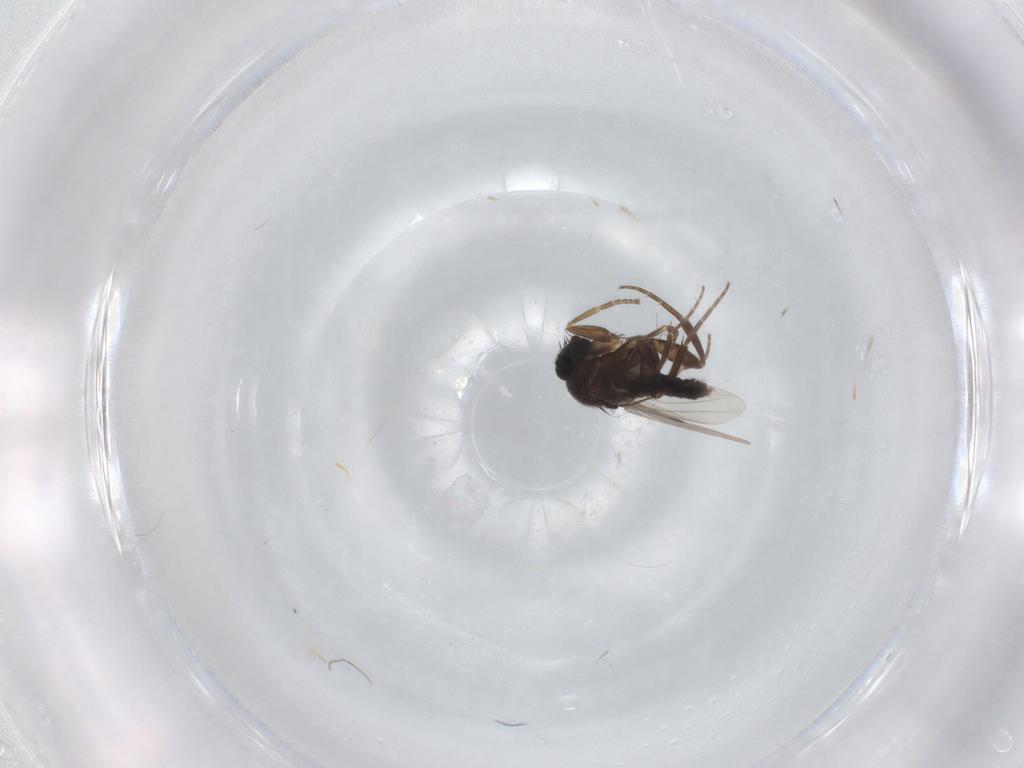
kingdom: Animalia
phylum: Arthropoda
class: Insecta
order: Diptera
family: Phoridae
